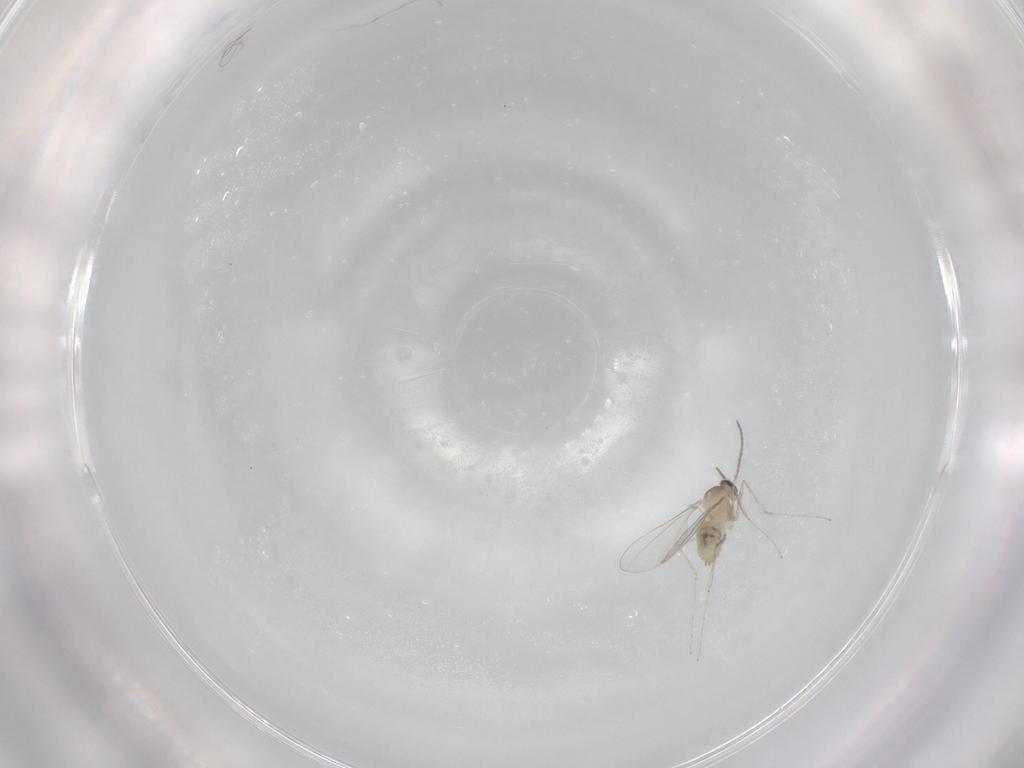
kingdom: Animalia
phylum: Arthropoda
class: Insecta
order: Diptera
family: Cecidomyiidae
